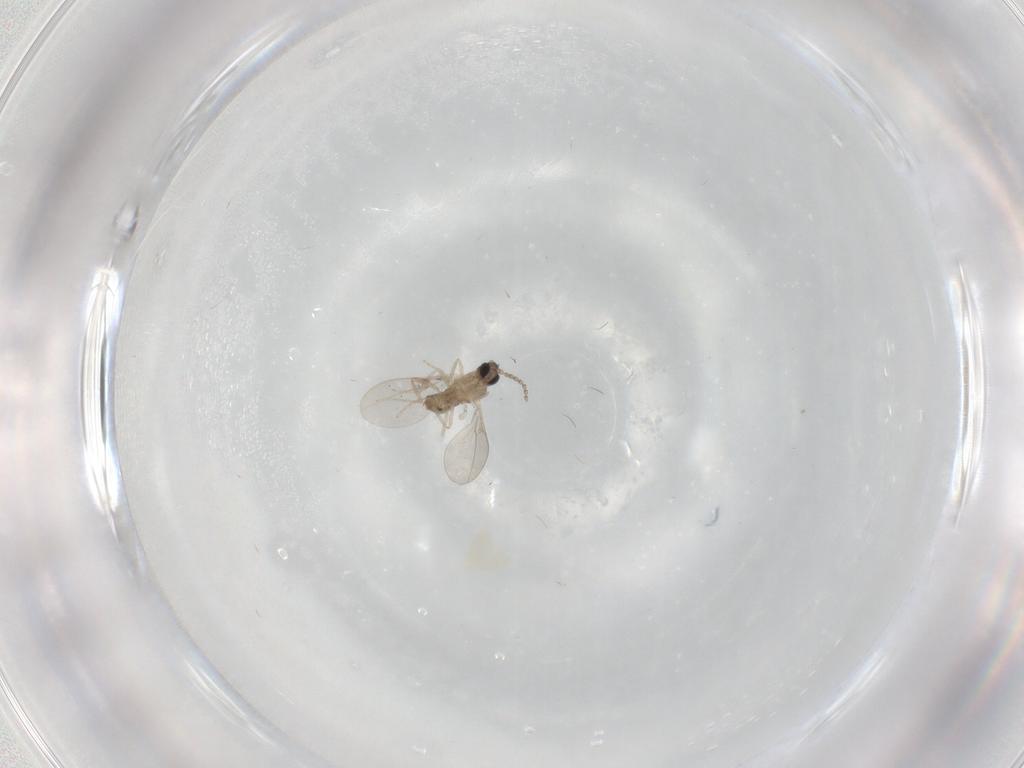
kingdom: Animalia
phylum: Arthropoda
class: Insecta
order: Diptera
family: Cecidomyiidae
